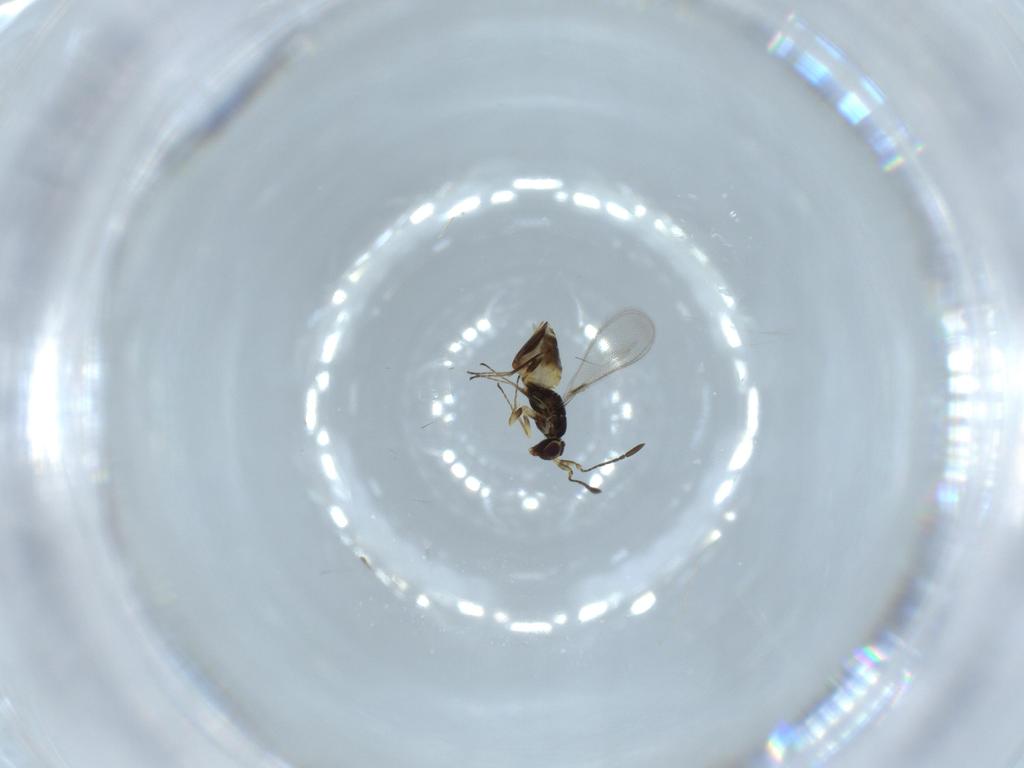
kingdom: Animalia
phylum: Arthropoda
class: Insecta
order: Hymenoptera
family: Mymaridae
